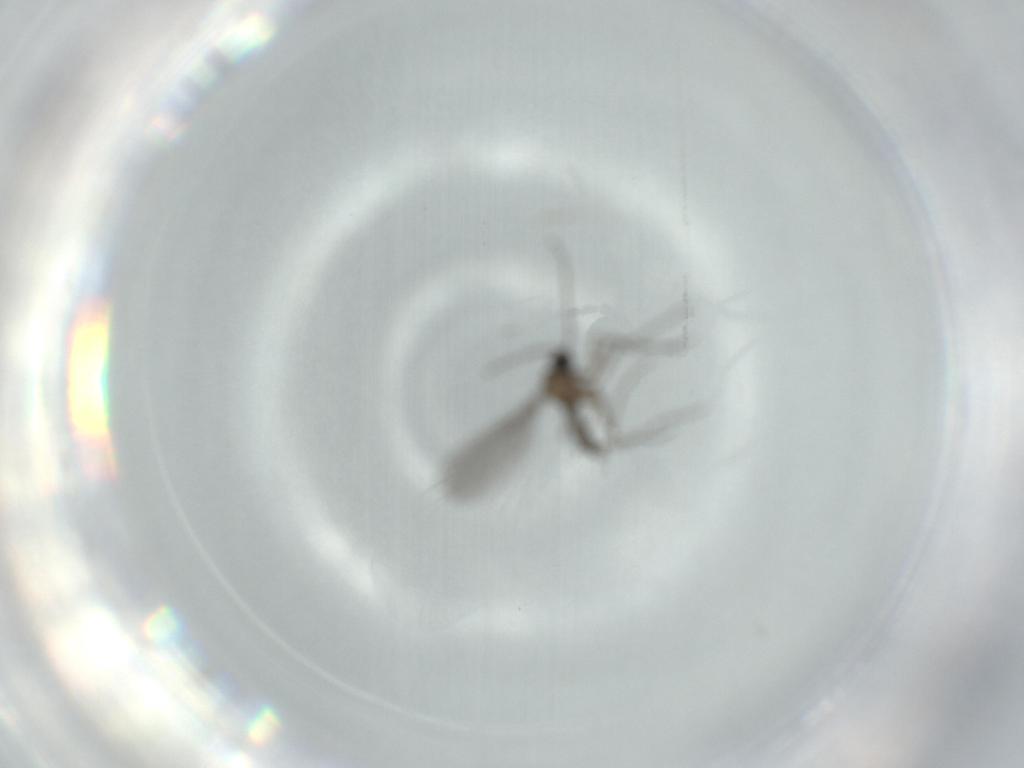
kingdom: Animalia
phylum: Arthropoda
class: Insecta
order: Diptera
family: Sciaridae
